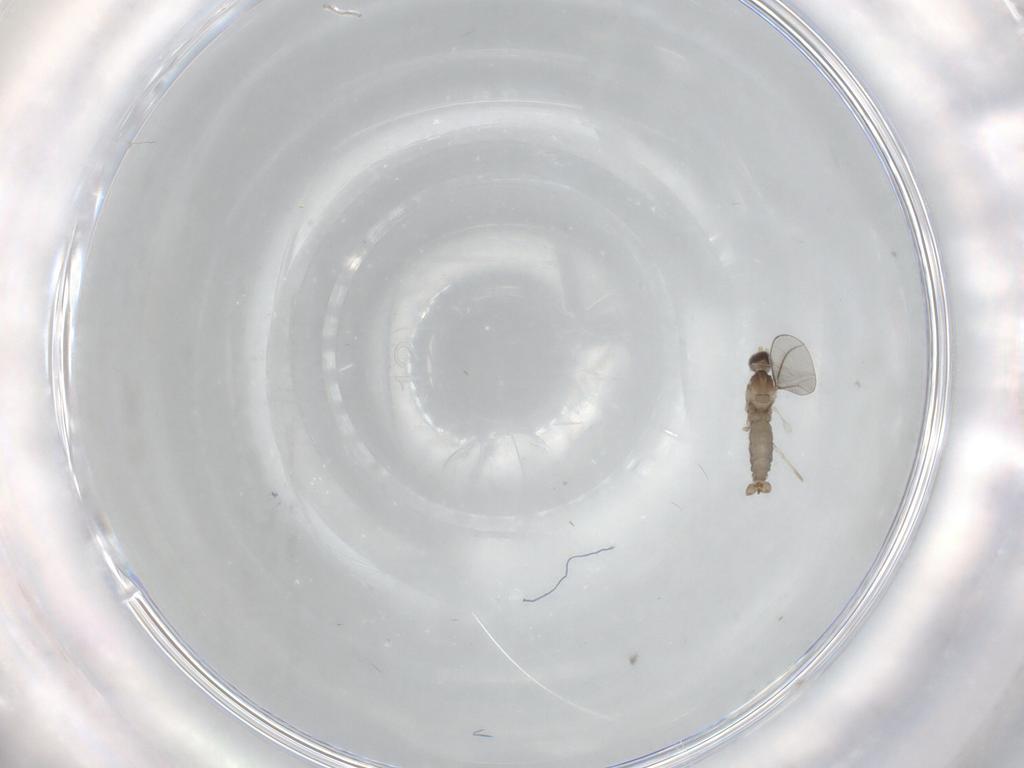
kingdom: Animalia
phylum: Arthropoda
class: Insecta
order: Diptera
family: Cecidomyiidae
